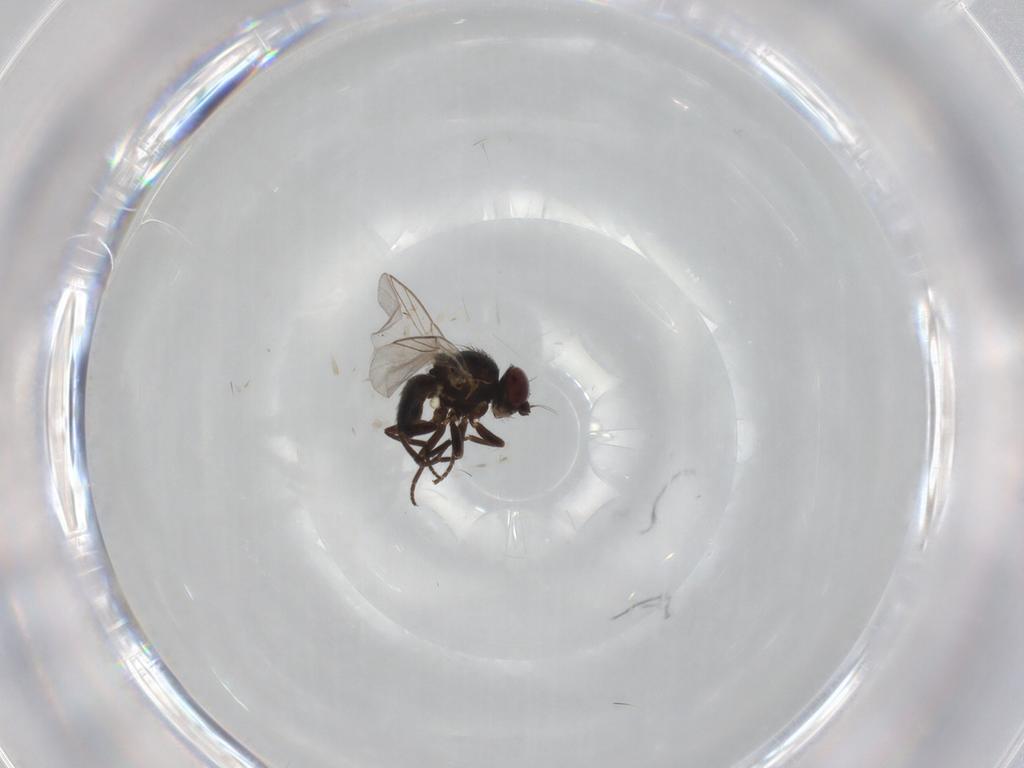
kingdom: Animalia
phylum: Arthropoda
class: Insecta
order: Diptera
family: Agromyzidae
